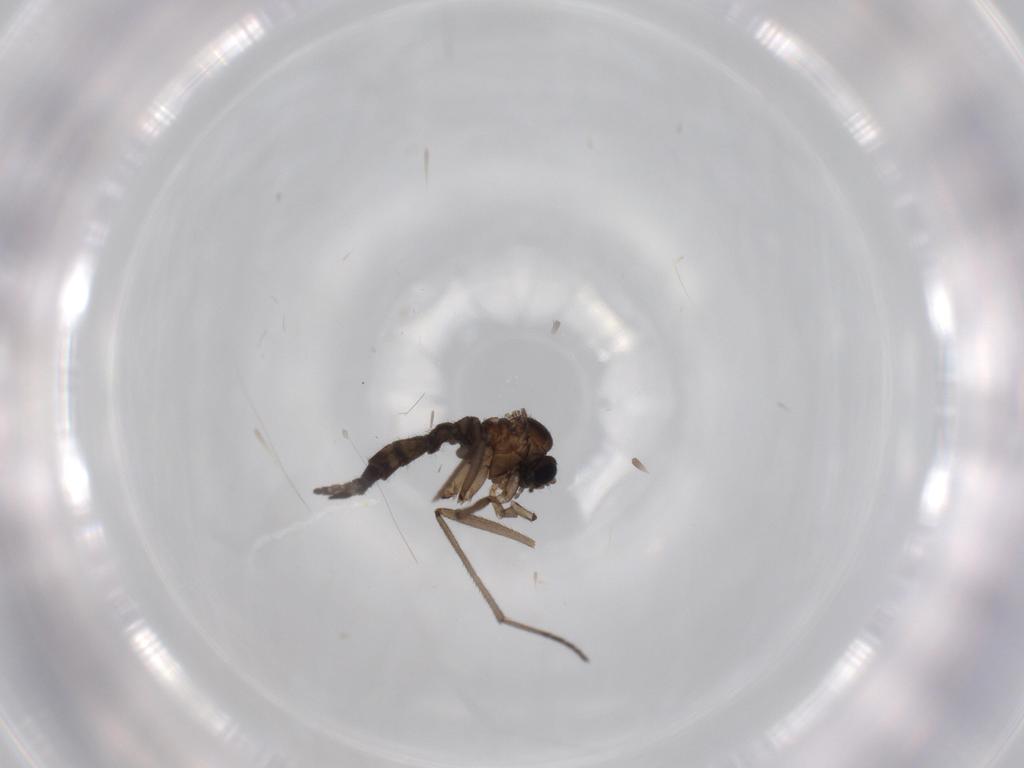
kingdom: Animalia
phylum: Arthropoda
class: Insecta
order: Diptera
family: Sciaridae
